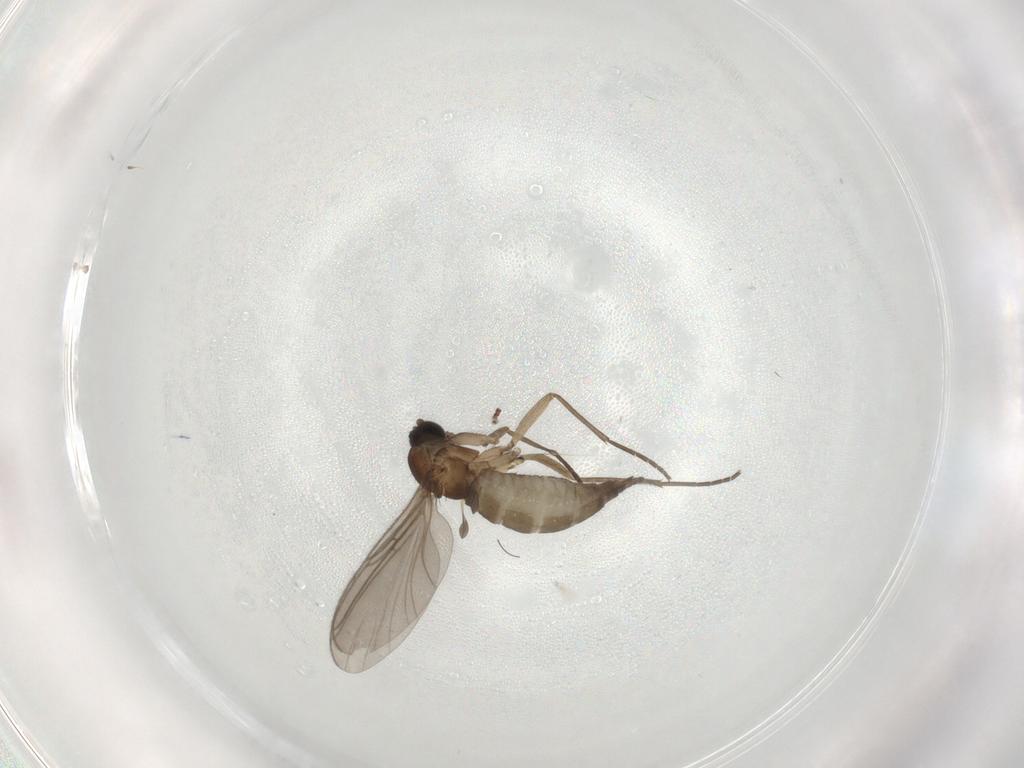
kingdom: Animalia
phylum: Arthropoda
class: Insecta
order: Diptera
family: Sciaridae
